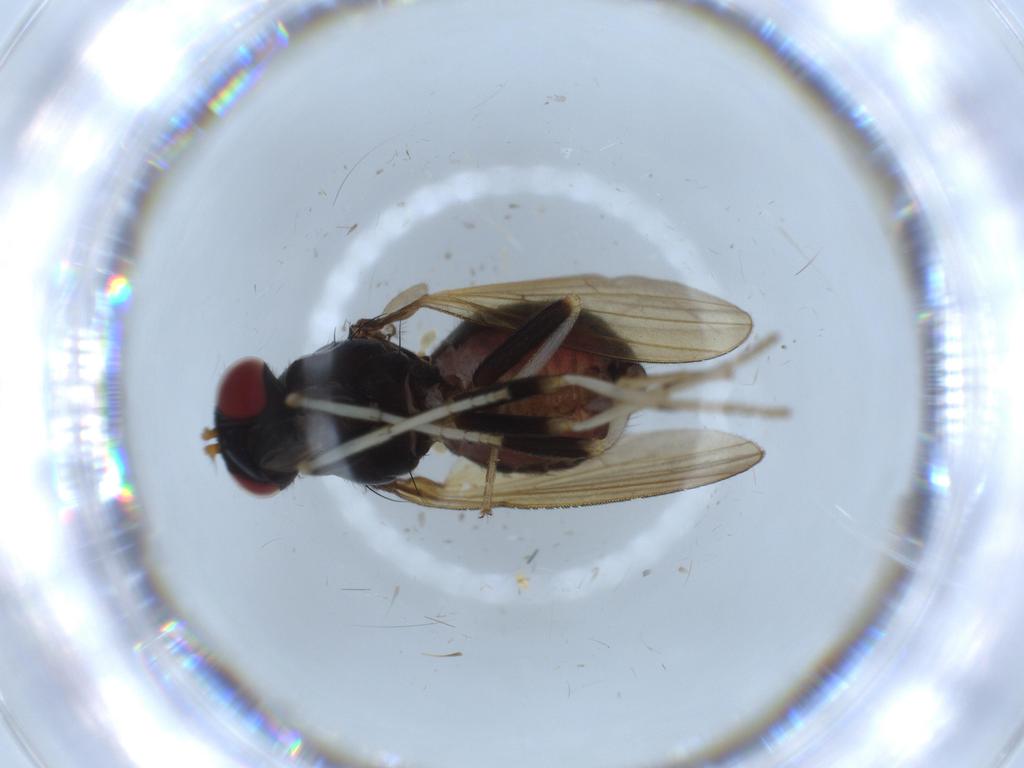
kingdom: Animalia
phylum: Arthropoda
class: Insecta
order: Diptera
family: Chironomidae
